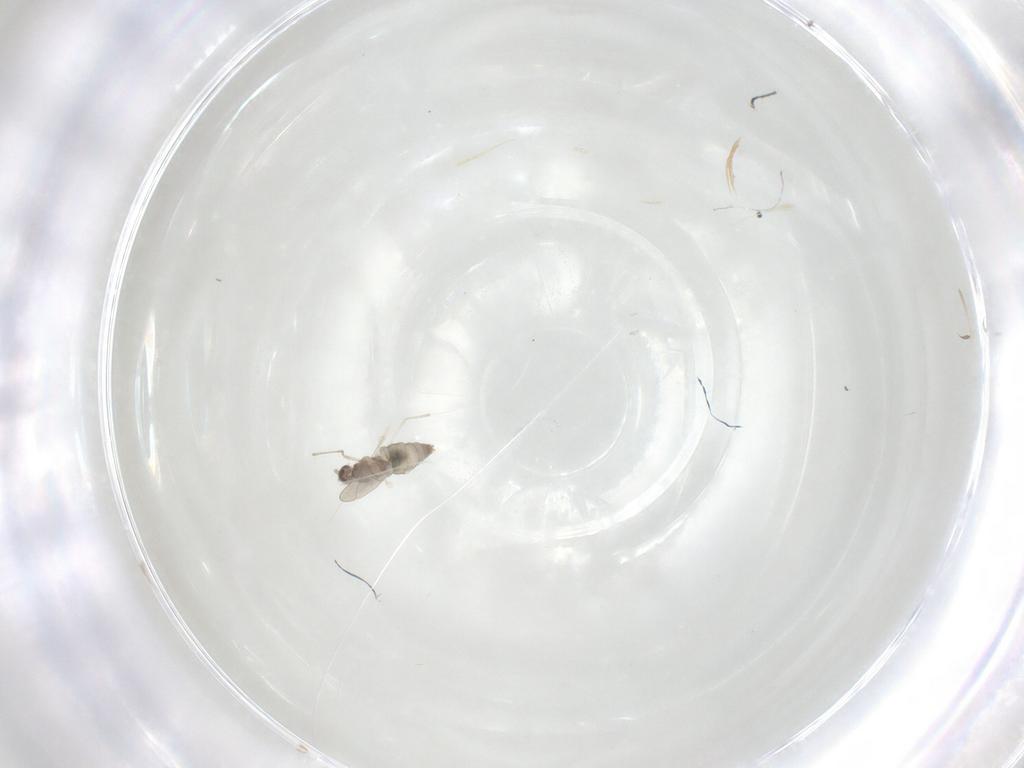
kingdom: Animalia
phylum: Arthropoda
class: Insecta
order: Diptera
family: Cecidomyiidae
